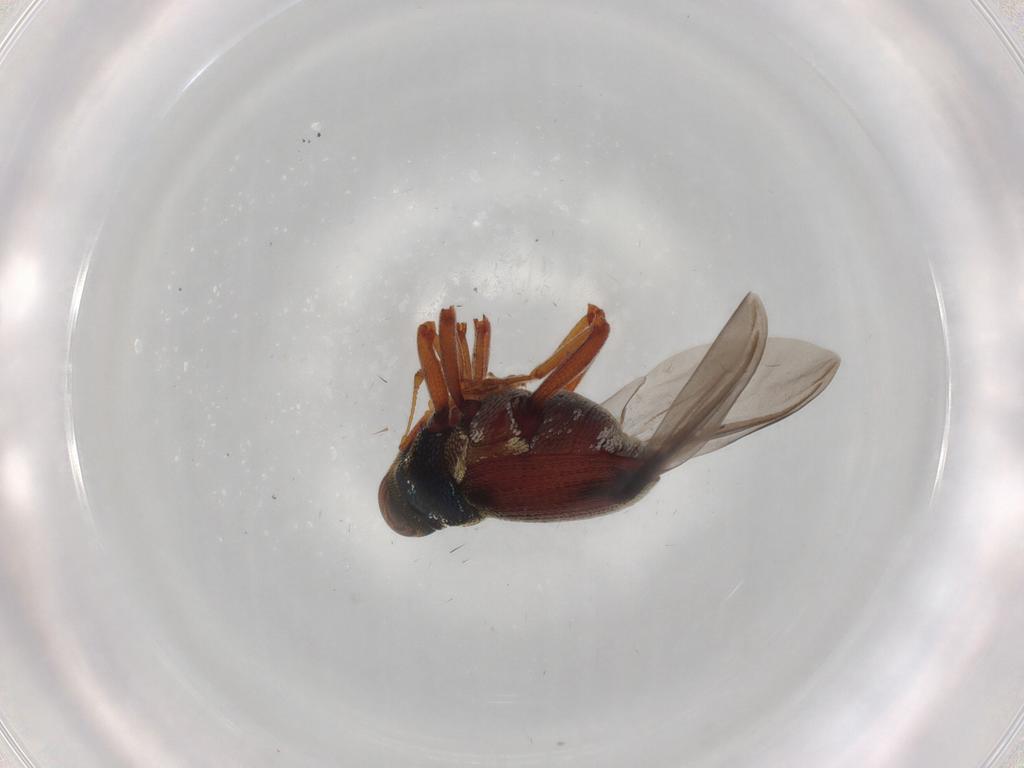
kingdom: Animalia
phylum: Arthropoda
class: Insecta
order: Coleoptera
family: Curculionidae
